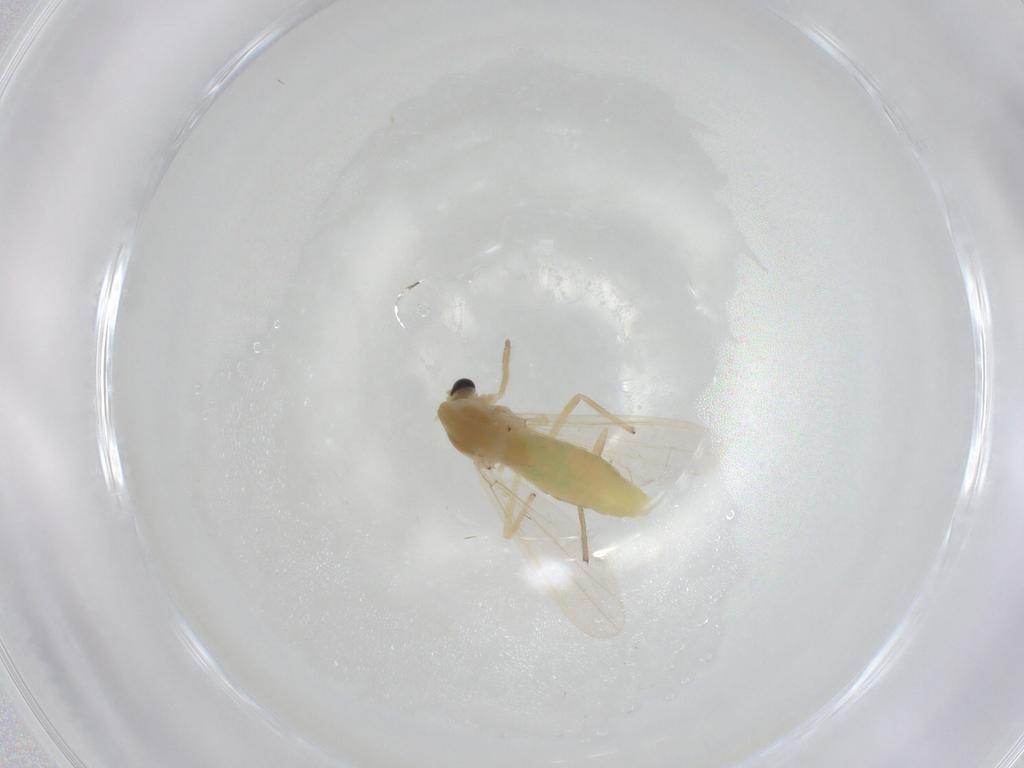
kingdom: Animalia
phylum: Arthropoda
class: Insecta
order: Diptera
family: Chironomidae
